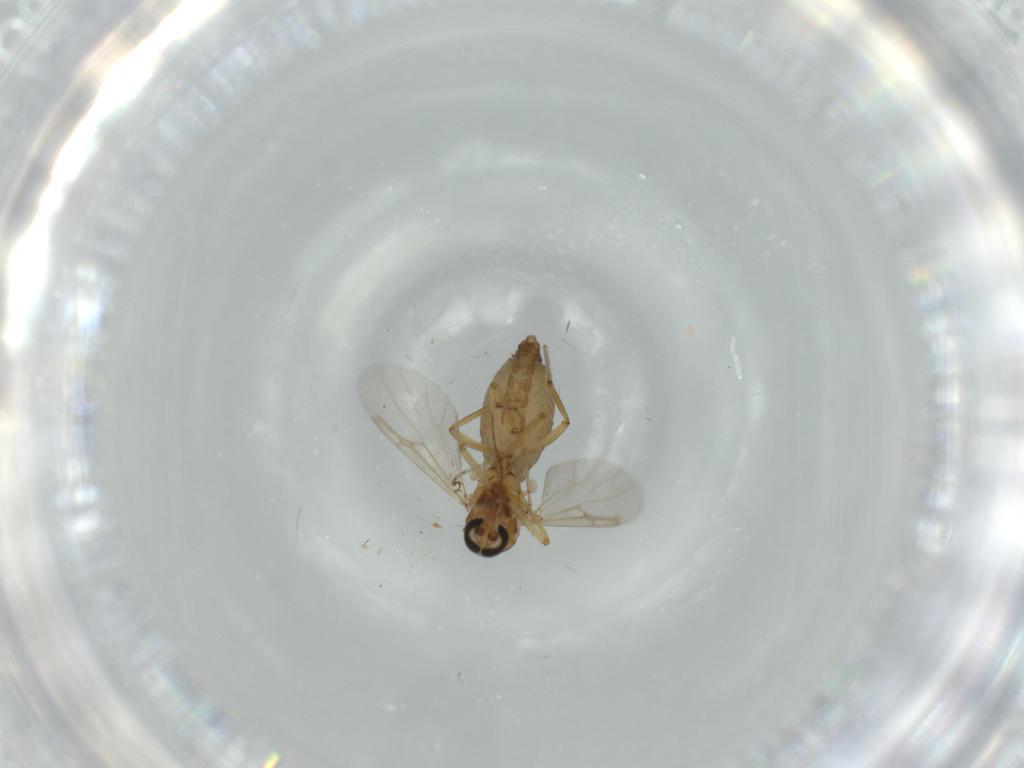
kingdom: Animalia
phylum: Arthropoda
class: Insecta
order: Diptera
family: Ceratopogonidae
